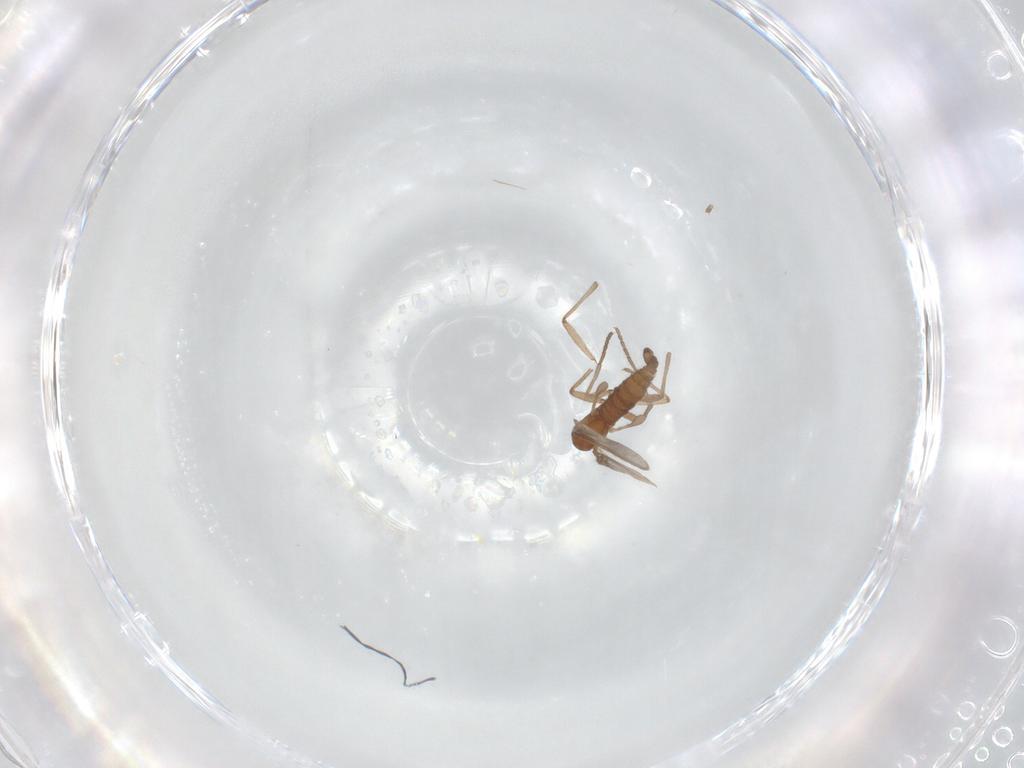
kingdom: Animalia
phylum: Arthropoda
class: Insecta
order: Diptera
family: Sciaridae
